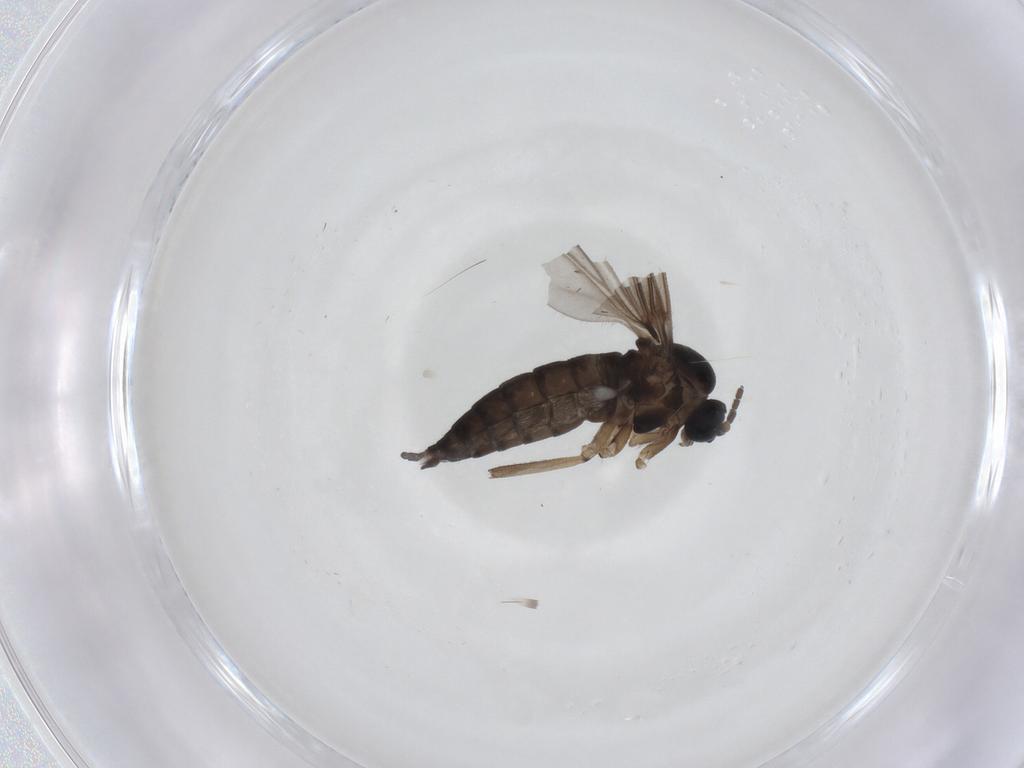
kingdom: Animalia
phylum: Arthropoda
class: Insecta
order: Diptera
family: Sciaridae
